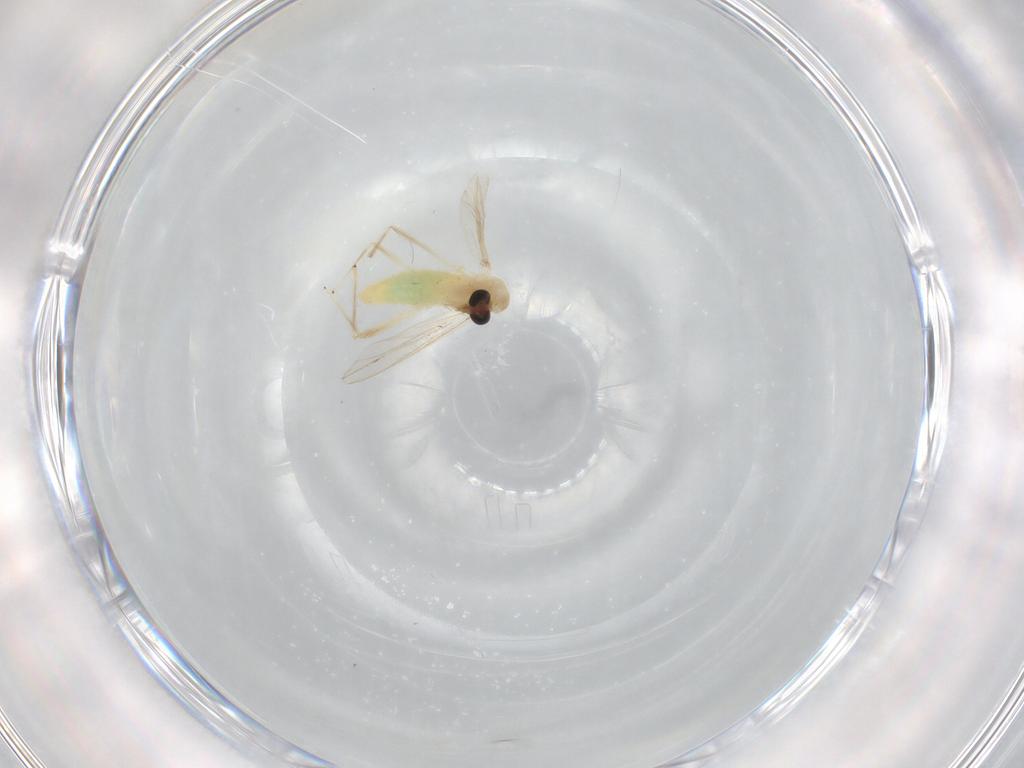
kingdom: Animalia
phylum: Arthropoda
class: Insecta
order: Diptera
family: Chironomidae
